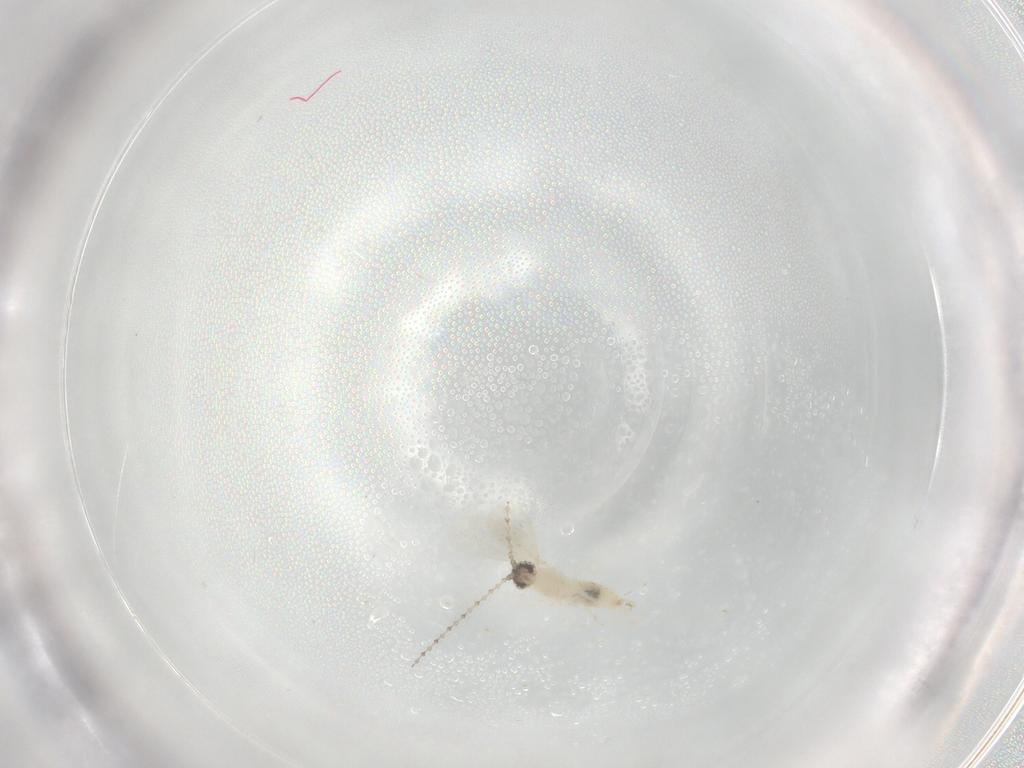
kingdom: Animalia
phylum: Arthropoda
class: Insecta
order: Diptera
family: Cecidomyiidae
